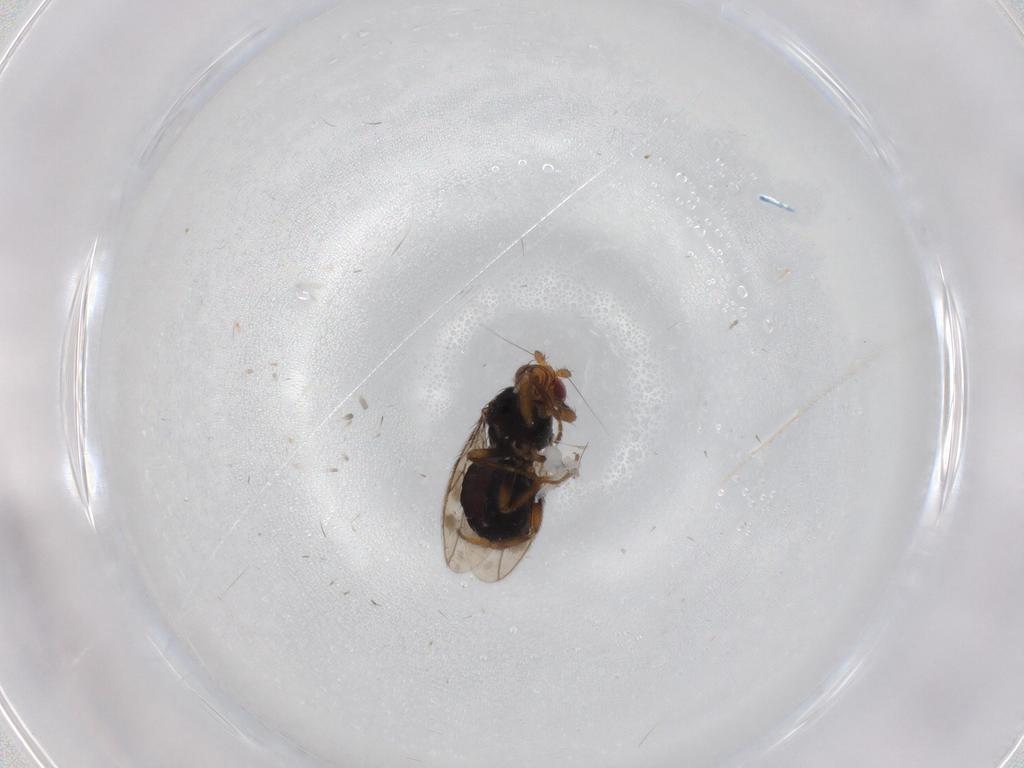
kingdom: Animalia
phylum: Arthropoda
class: Insecta
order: Diptera
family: Sphaeroceridae
